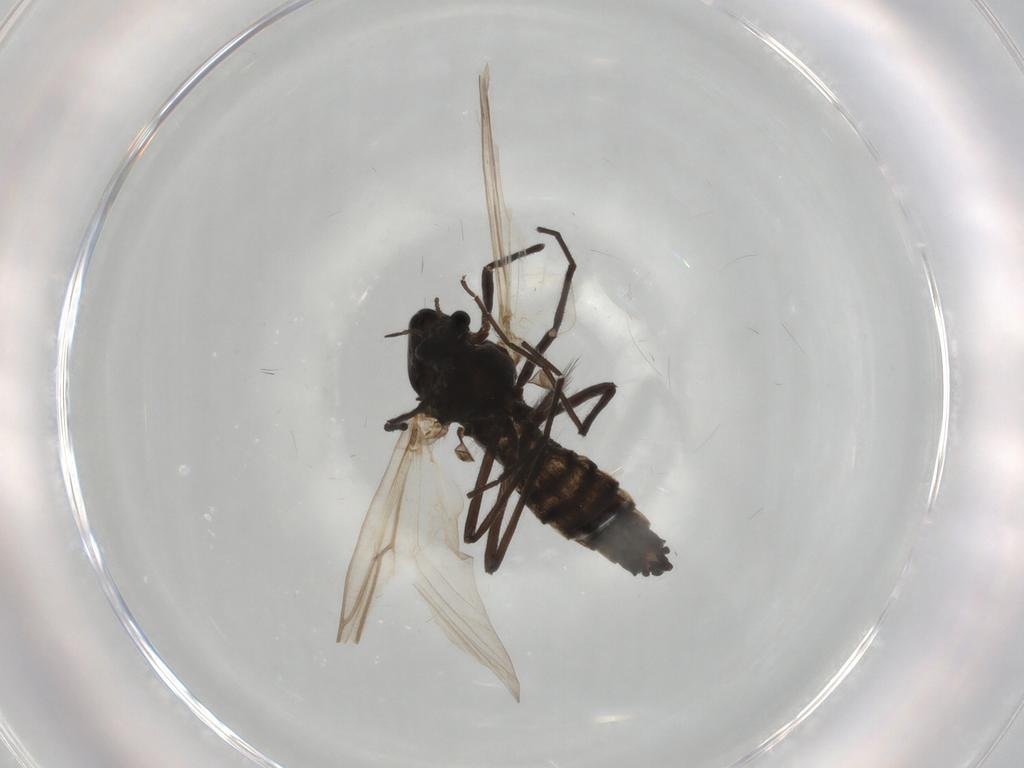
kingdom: Animalia
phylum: Arthropoda
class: Insecta
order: Diptera
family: Chironomidae
